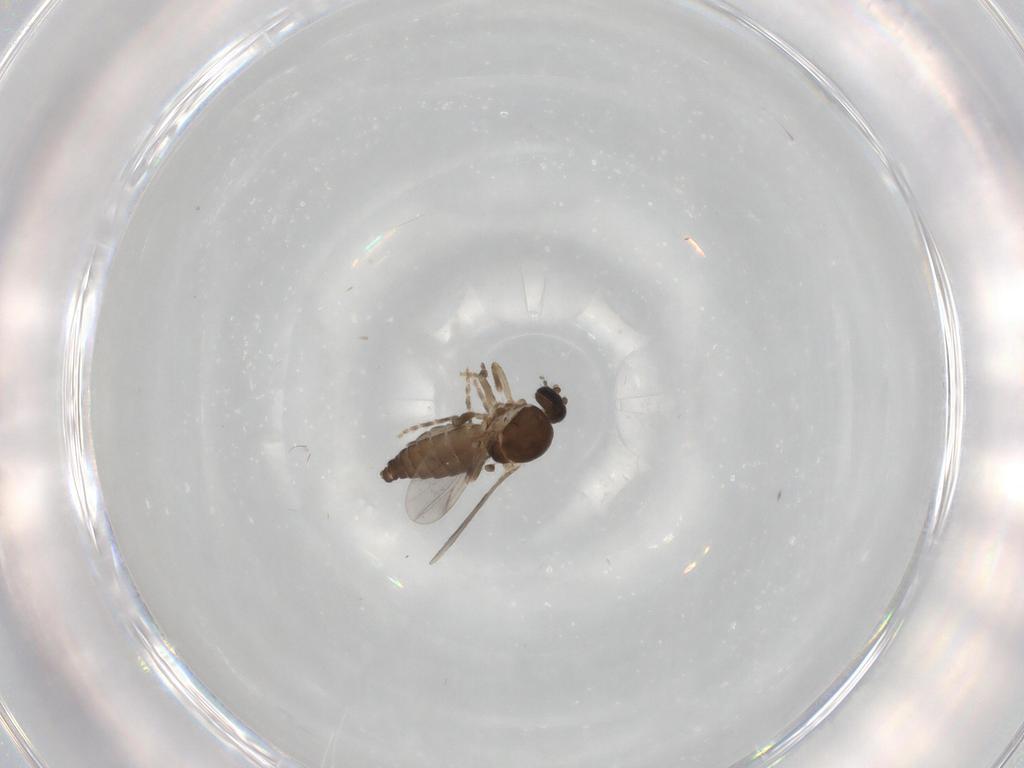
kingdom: Animalia
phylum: Arthropoda
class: Insecta
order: Diptera
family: Ceratopogonidae
